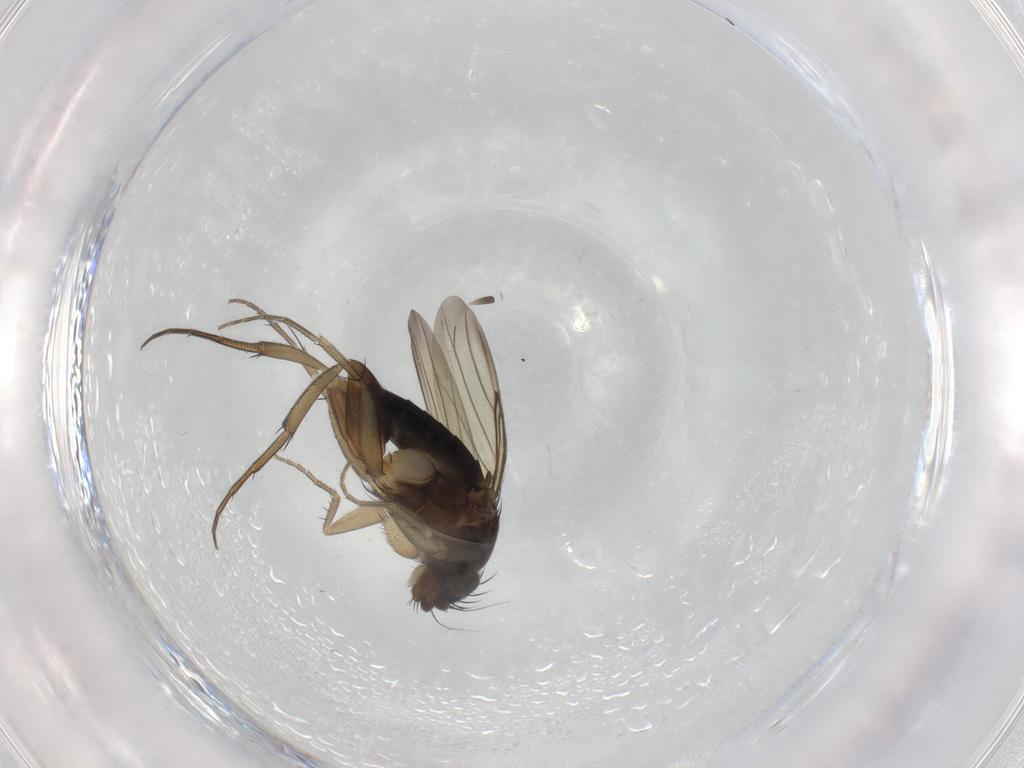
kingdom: Animalia
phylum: Arthropoda
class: Insecta
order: Diptera
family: Phoridae
